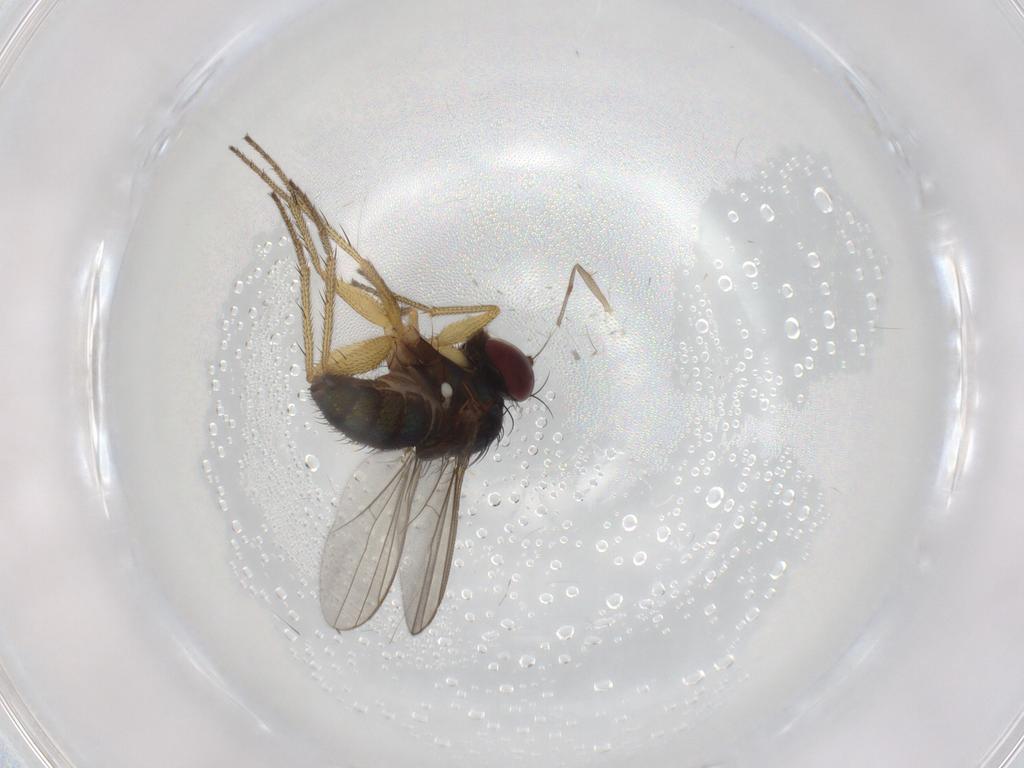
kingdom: Animalia
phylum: Arthropoda
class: Insecta
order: Diptera
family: Chironomidae
